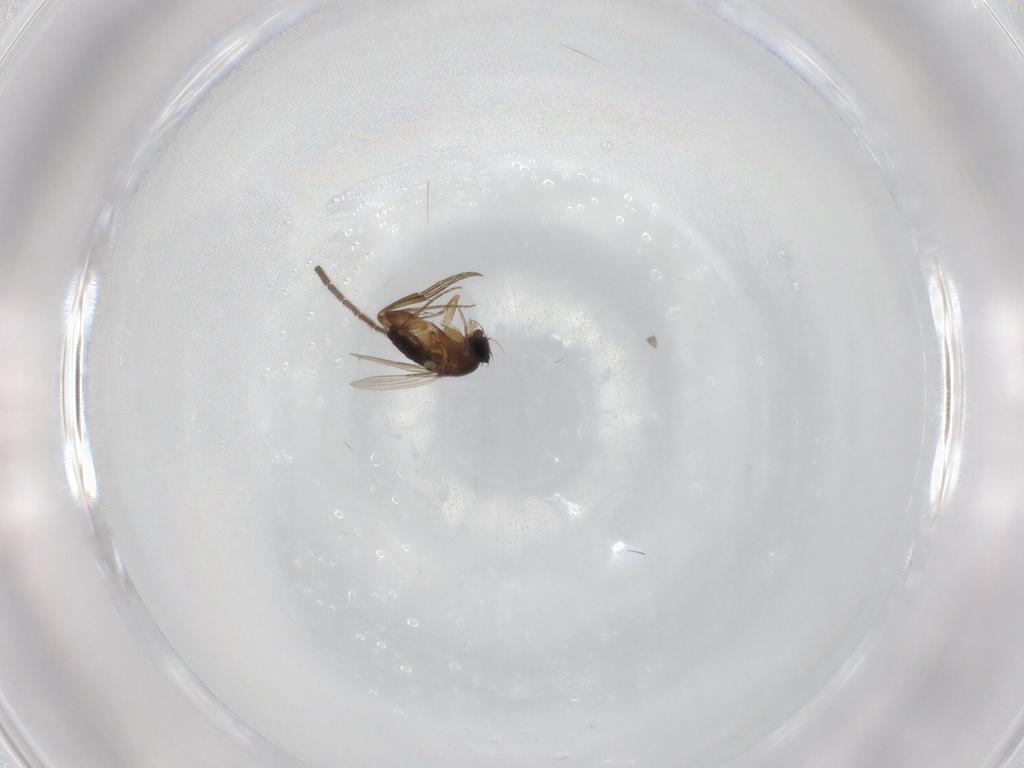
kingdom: Animalia
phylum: Arthropoda
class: Insecta
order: Diptera
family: Phoridae
